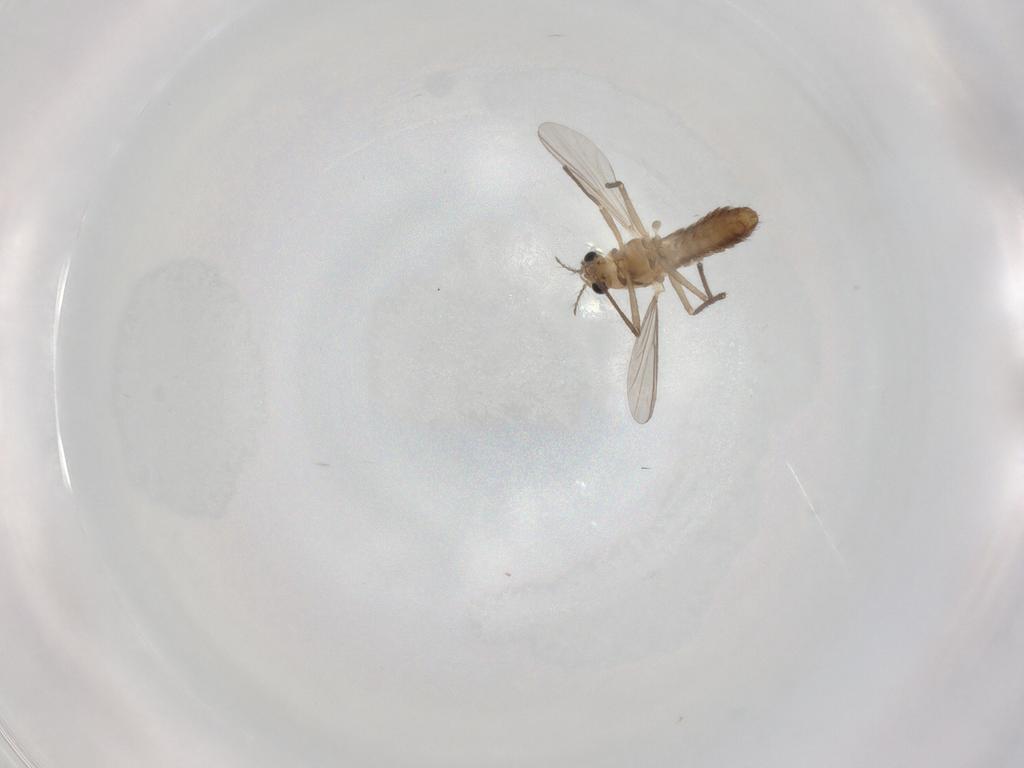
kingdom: Animalia
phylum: Arthropoda
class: Insecta
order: Diptera
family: Chironomidae
